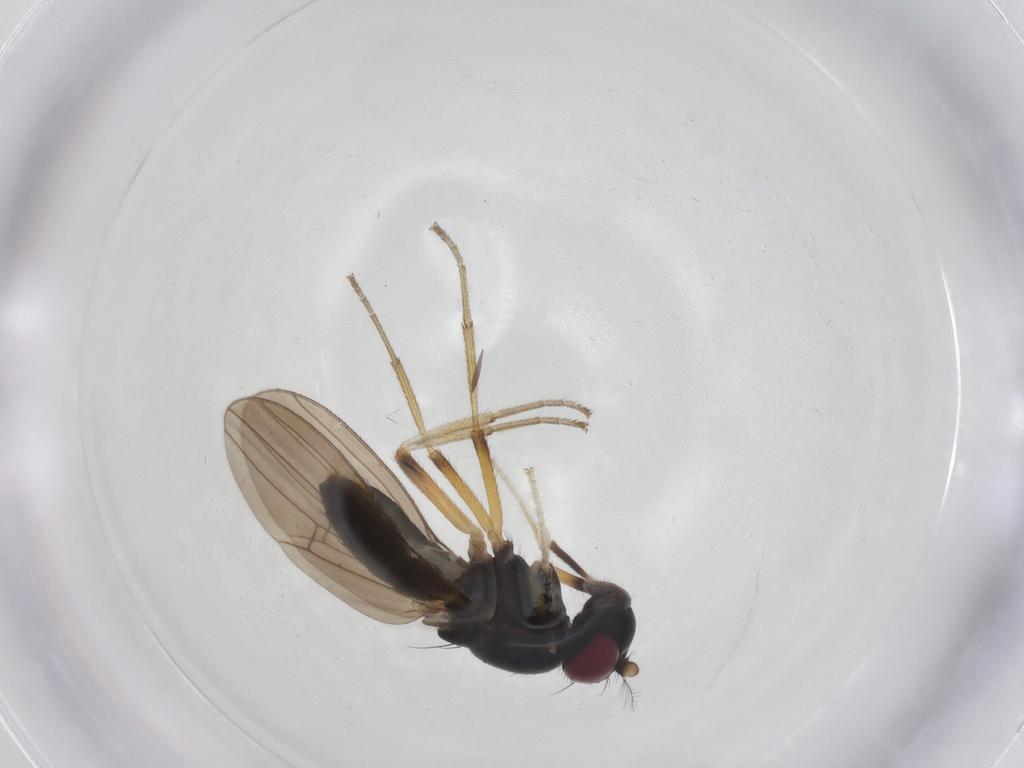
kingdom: Animalia
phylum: Arthropoda
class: Insecta
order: Diptera
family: Lauxaniidae
